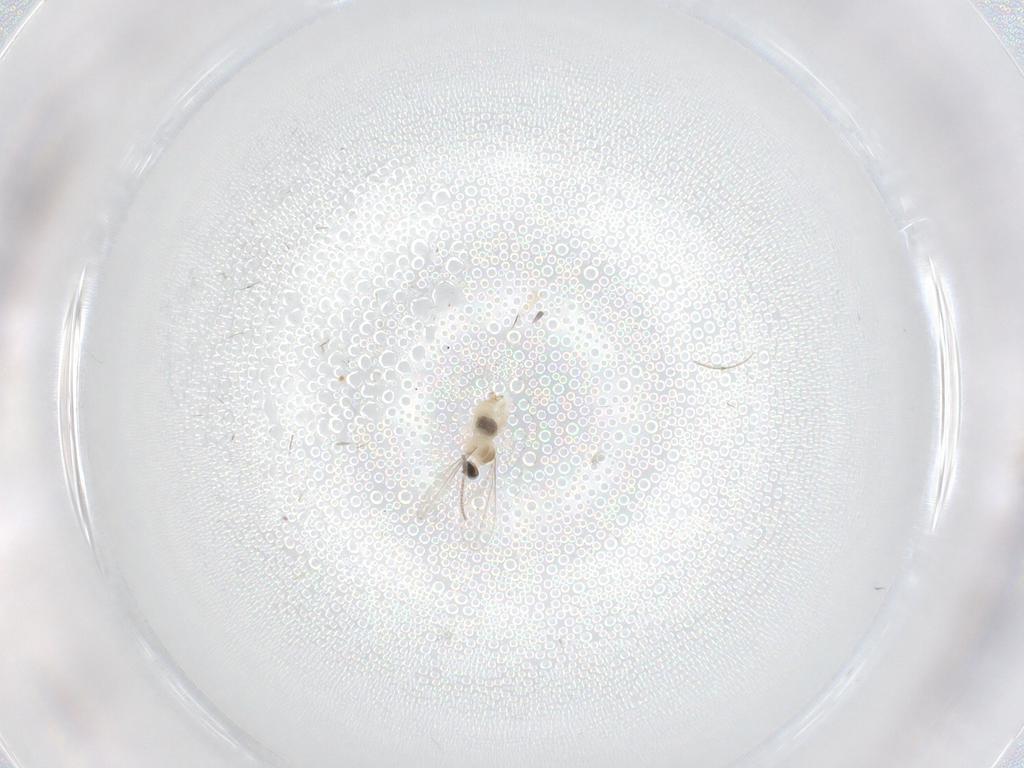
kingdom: Animalia
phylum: Arthropoda
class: Insecta
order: Diptera
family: Cecidomyiidae
